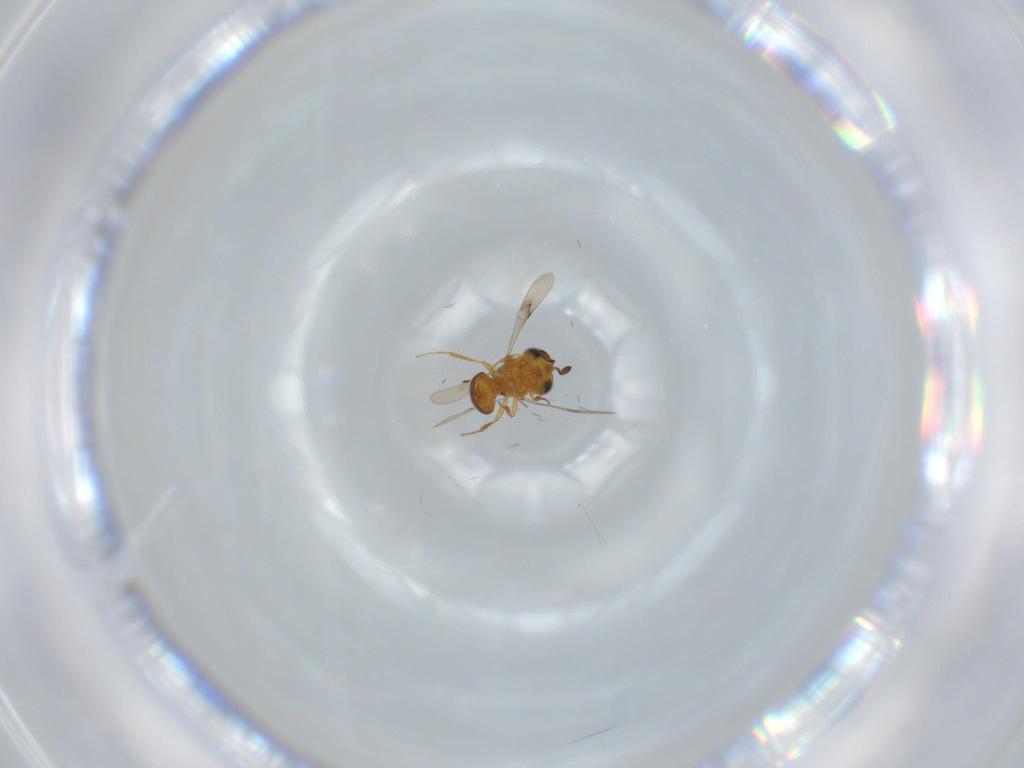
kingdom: Animalia
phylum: Arthropoda
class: Insecta
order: Hymenoptera
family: Scelionidae
